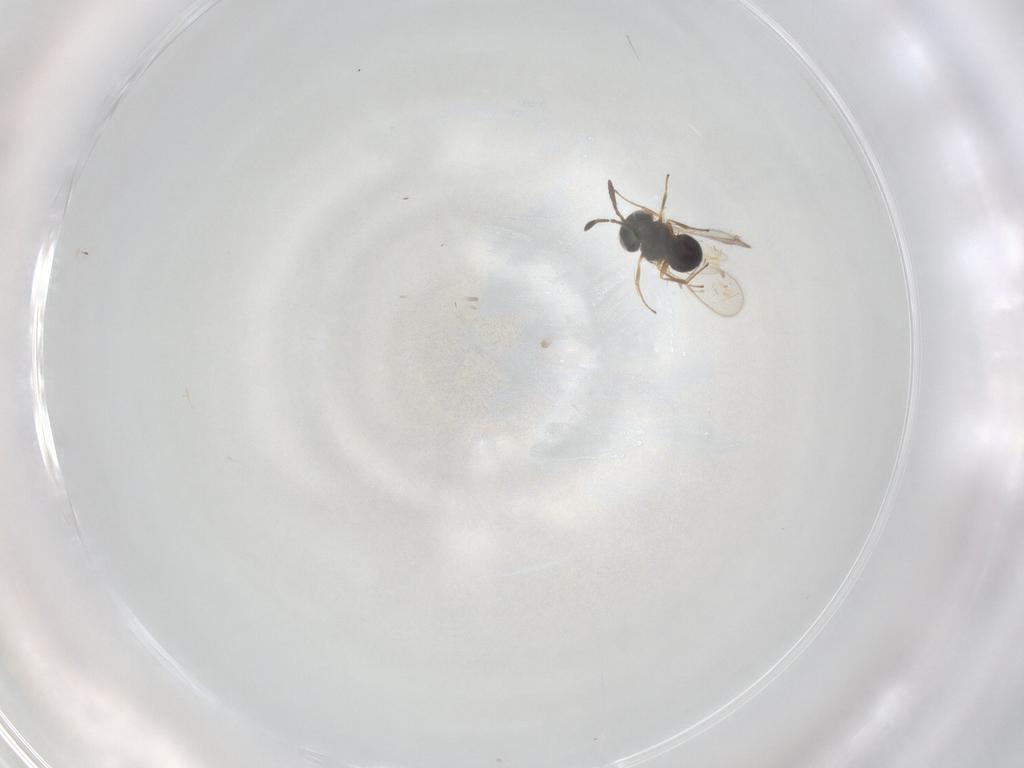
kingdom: Animalia
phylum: Arthropoda
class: Insecta
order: Hymenoptera
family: Scelionidae
